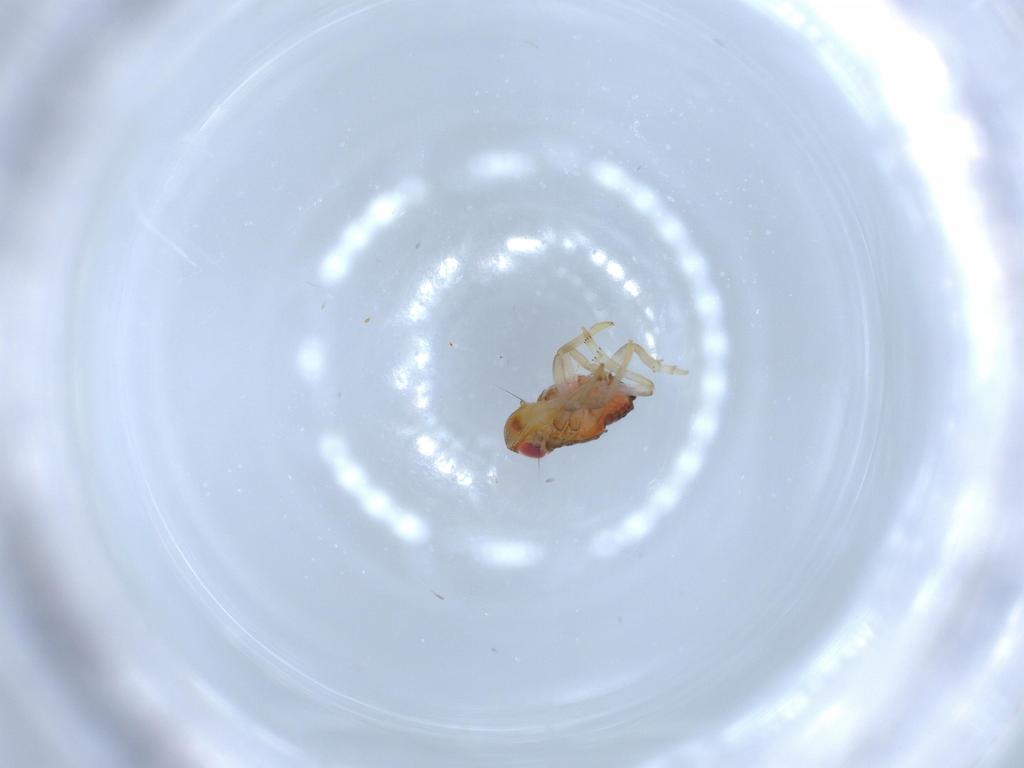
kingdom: Animalia
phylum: Arthropoda
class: Insecta
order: Hemiptera
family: Issidae
